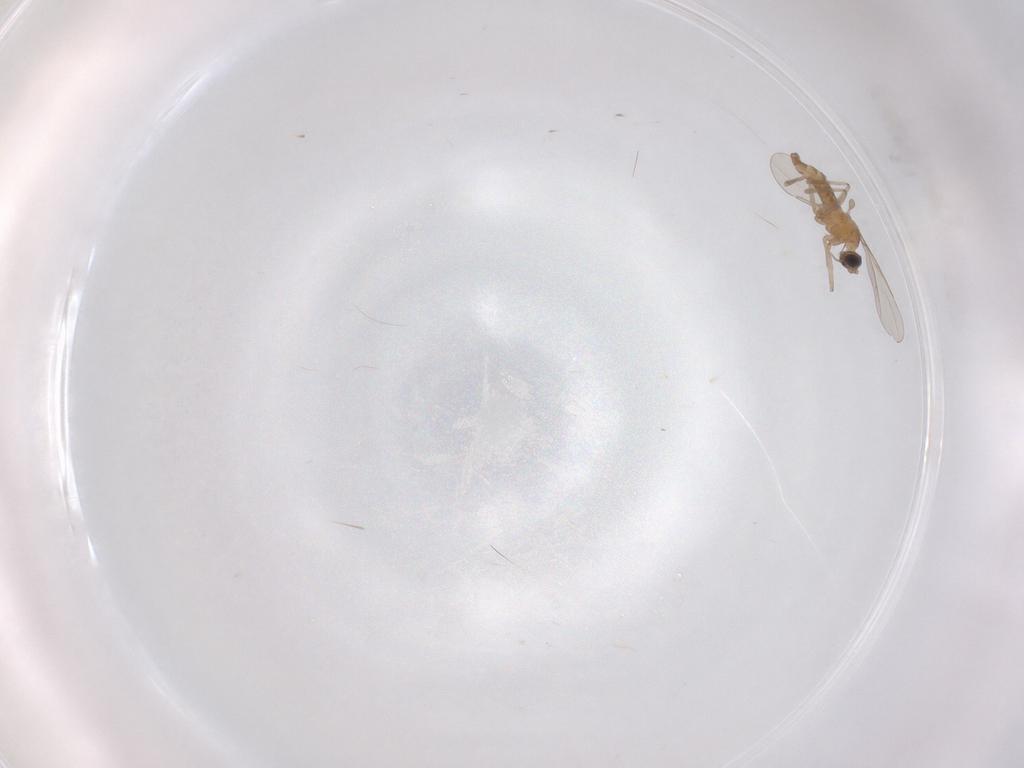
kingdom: Animalia
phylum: Arthropoda
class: Insecta
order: Diptera
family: Cecidomyiidae
